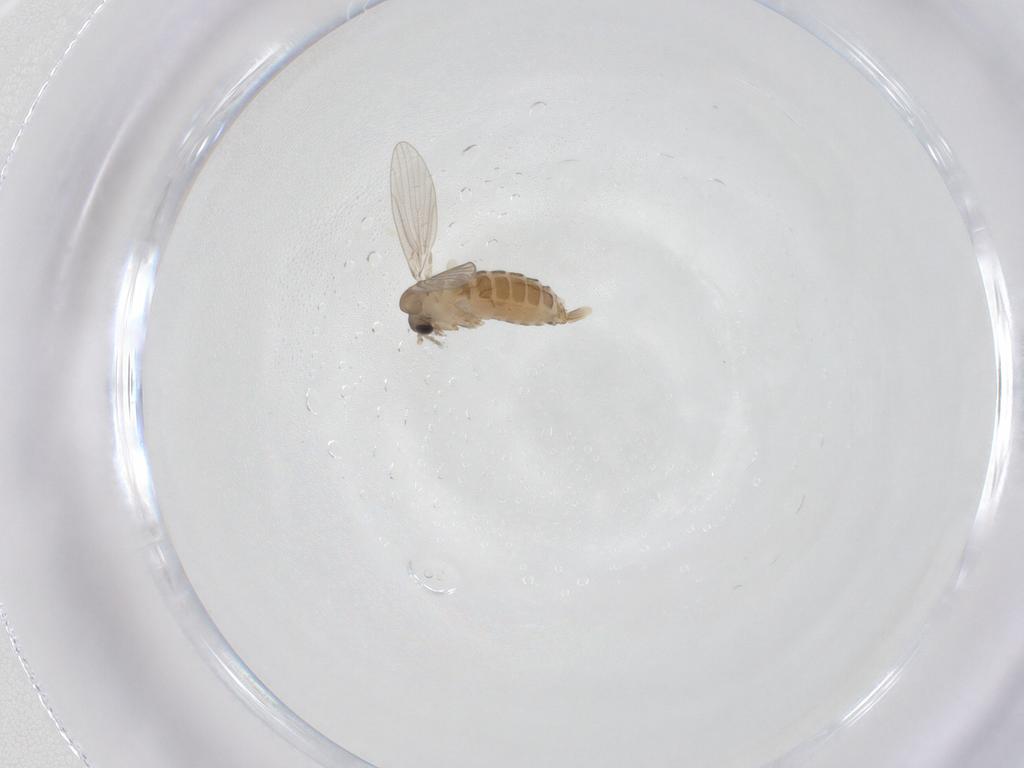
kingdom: Animalia
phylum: Arthropoda
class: Insecta
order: Diptera
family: Psychodidae
